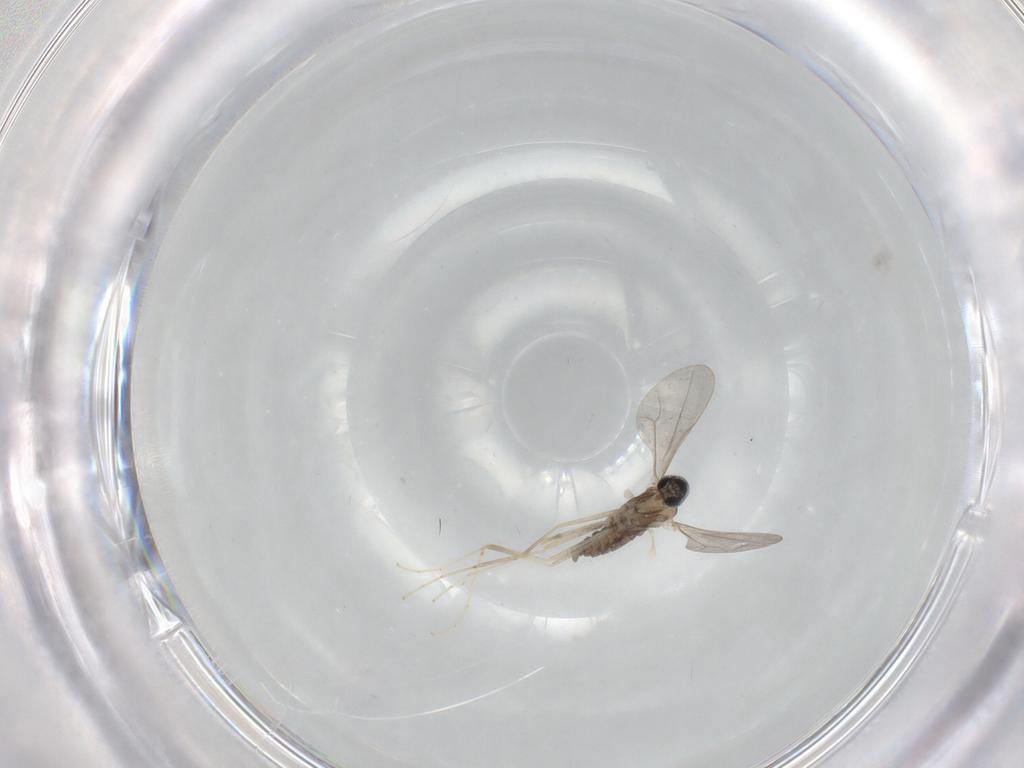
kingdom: Animalia
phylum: Arthropoda
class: Insecta
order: Diptera
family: Cecidomyiidae
